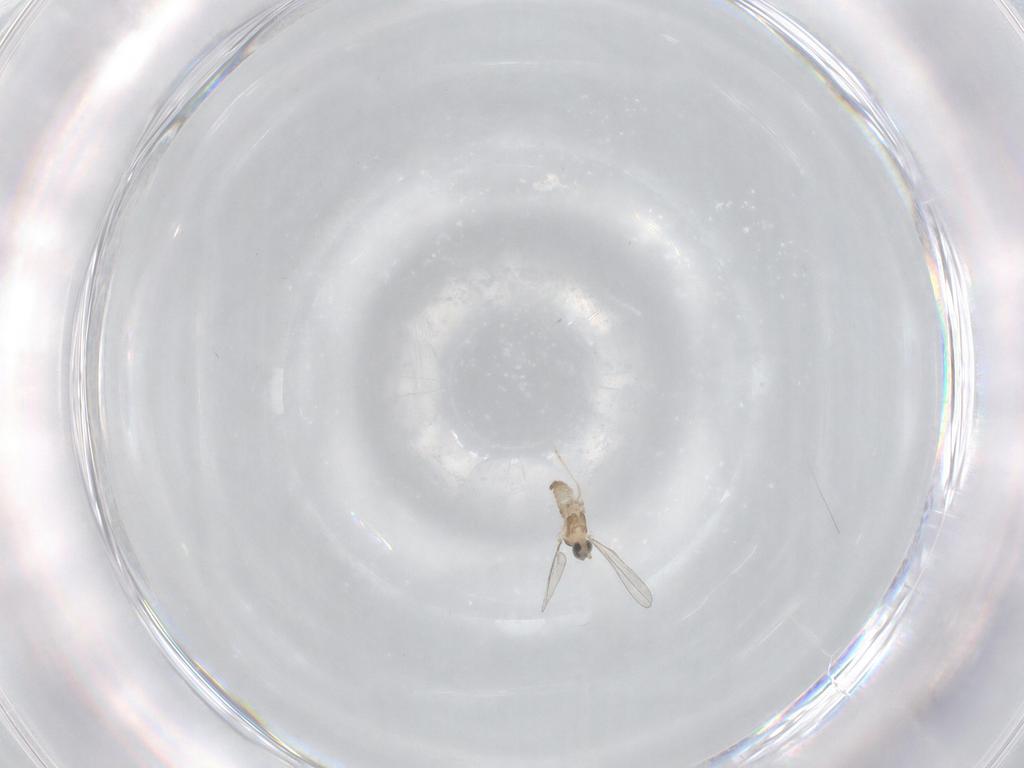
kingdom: Animalia
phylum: Arthropoda
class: Insecta
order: Diptera
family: Cecidomyiidae
